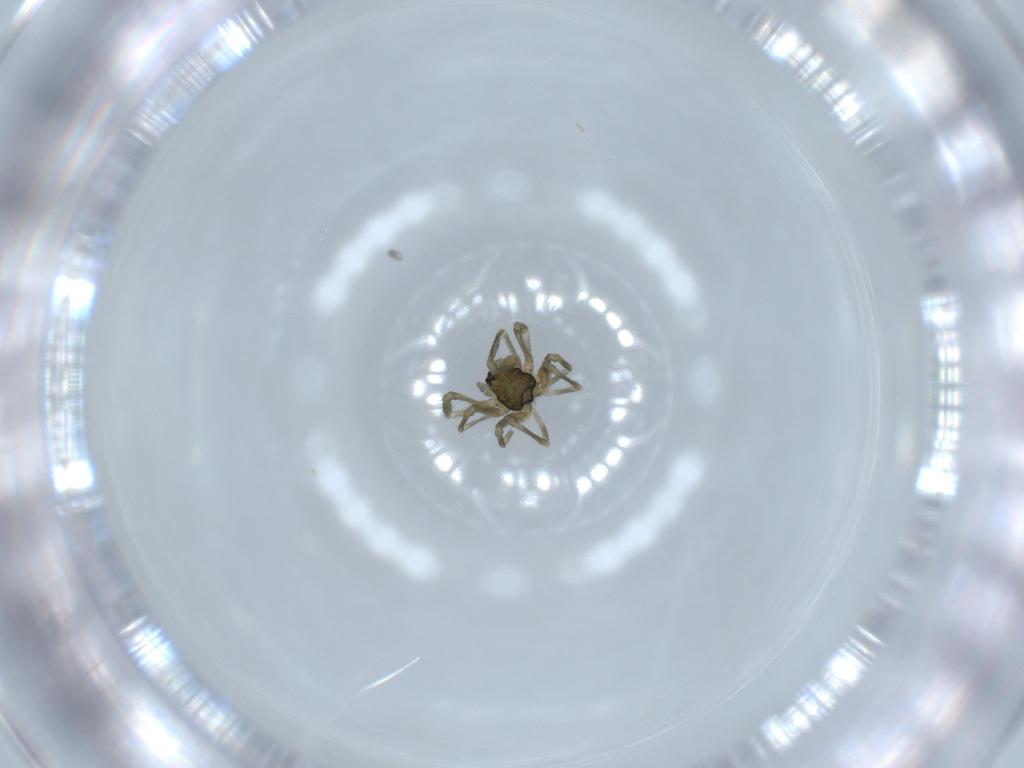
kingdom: Animalia
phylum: Arthropoda
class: Arachnida
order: Araneae
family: Linyphiidae
